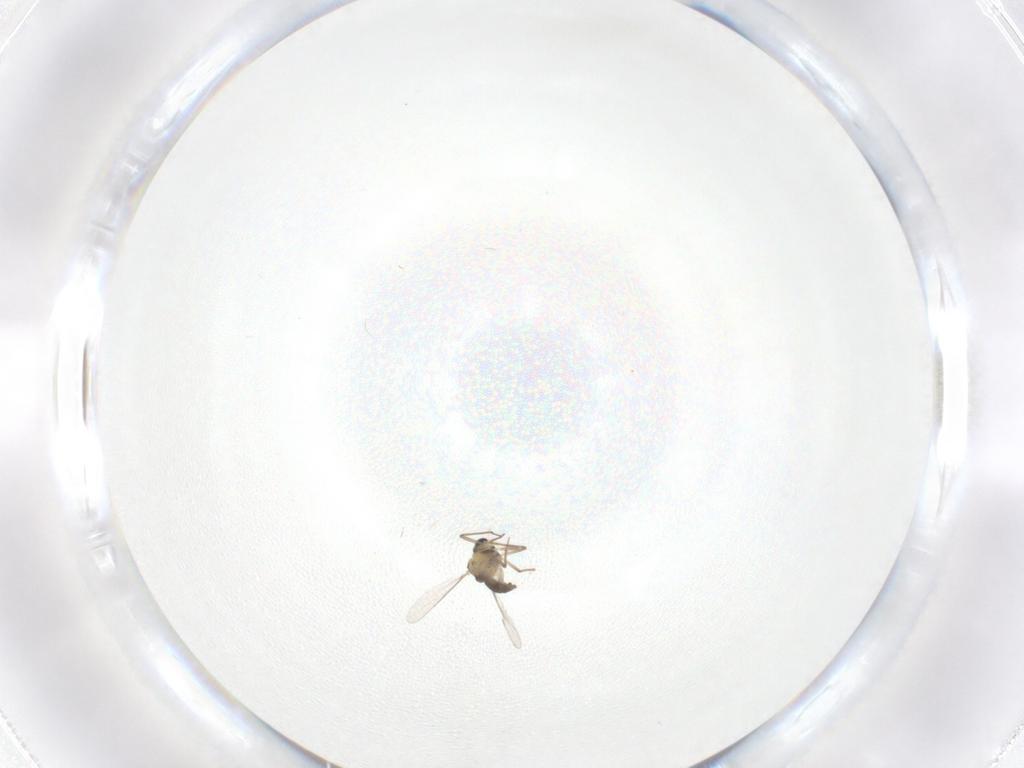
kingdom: Animalia
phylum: Arthropoda
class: Insecta
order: Diptera
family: Chironomidae
